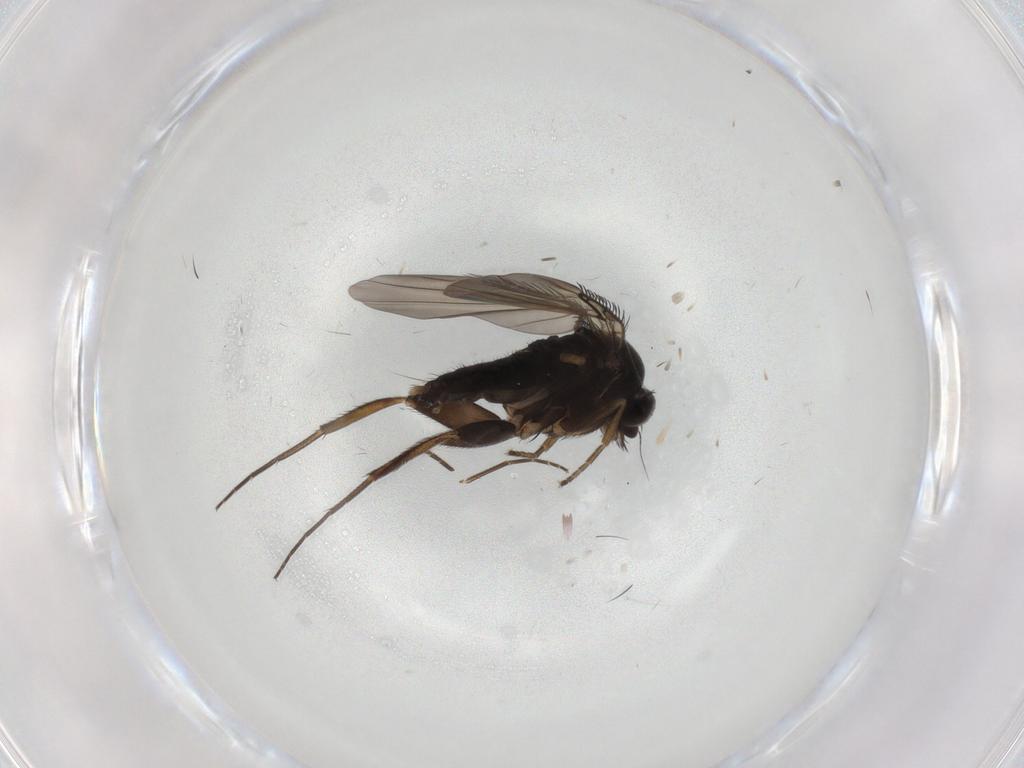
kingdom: Animalia
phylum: Arthropoda
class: Insecta
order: Diptera
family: Phoridae
